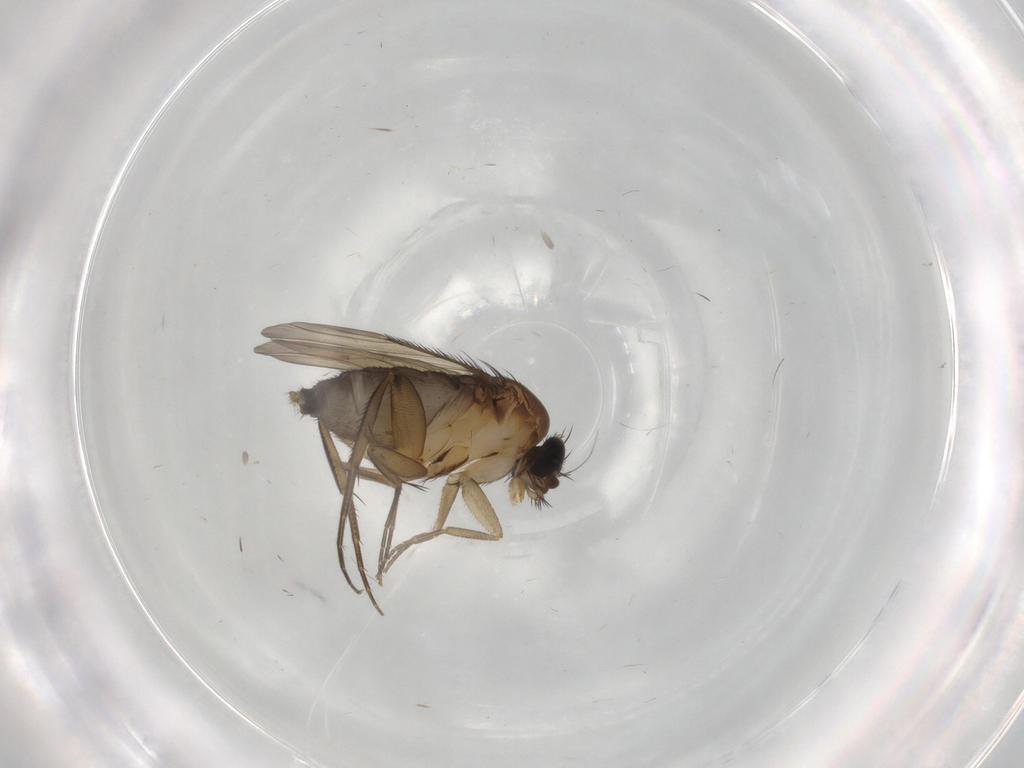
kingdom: Animalia
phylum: Arthropoda
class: Insecta
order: Diptera
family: Phoridae
